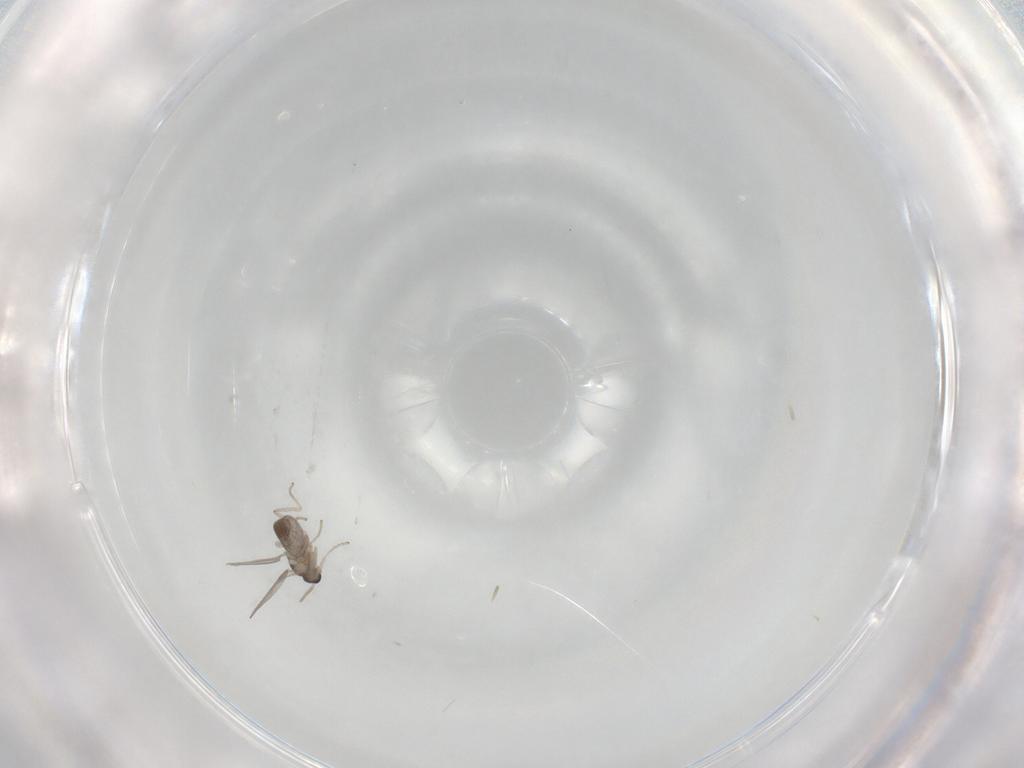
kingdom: Animalia
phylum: Arthropoda
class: Insecta
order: Diptera
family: Cecidomyiidae
